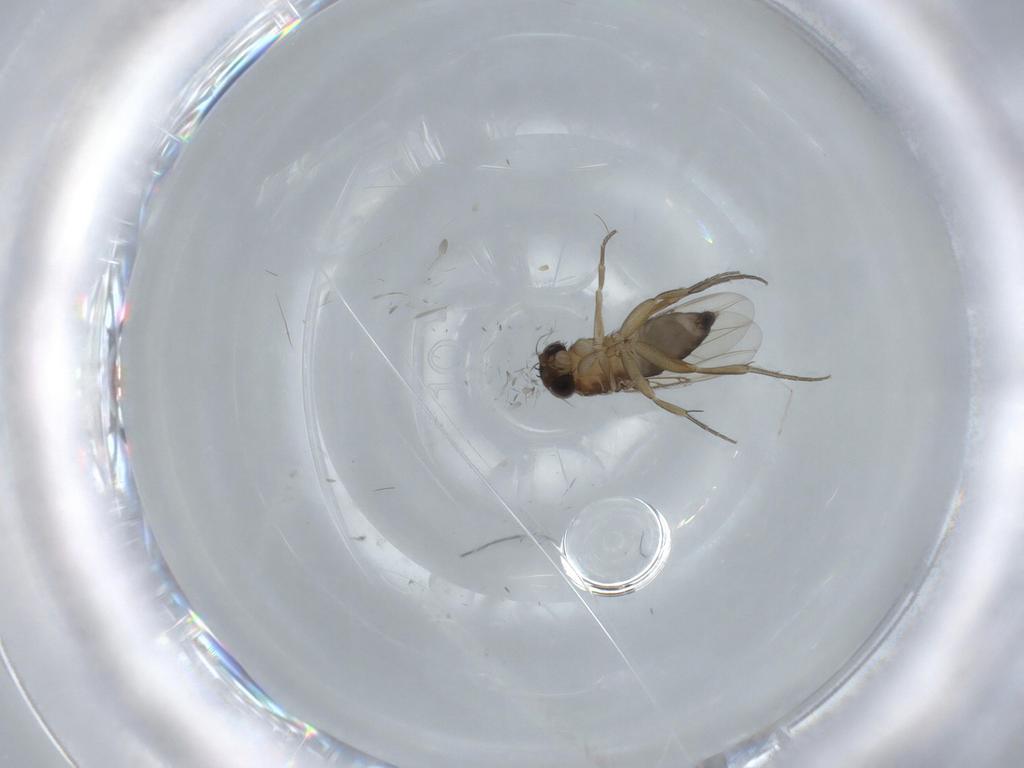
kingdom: Animalia
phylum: Arthropoda
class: Insecta
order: Diptera
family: Phoridae
